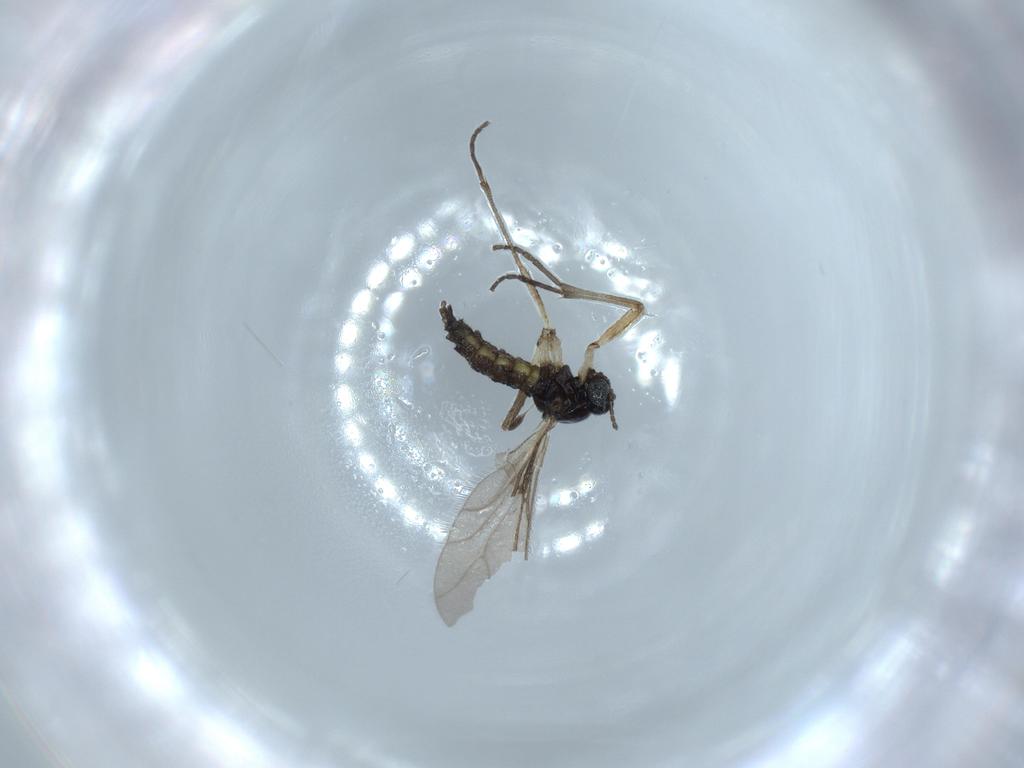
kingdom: Animalia
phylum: Arthropoda
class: Insecta
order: Diptera
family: Sciaridae
